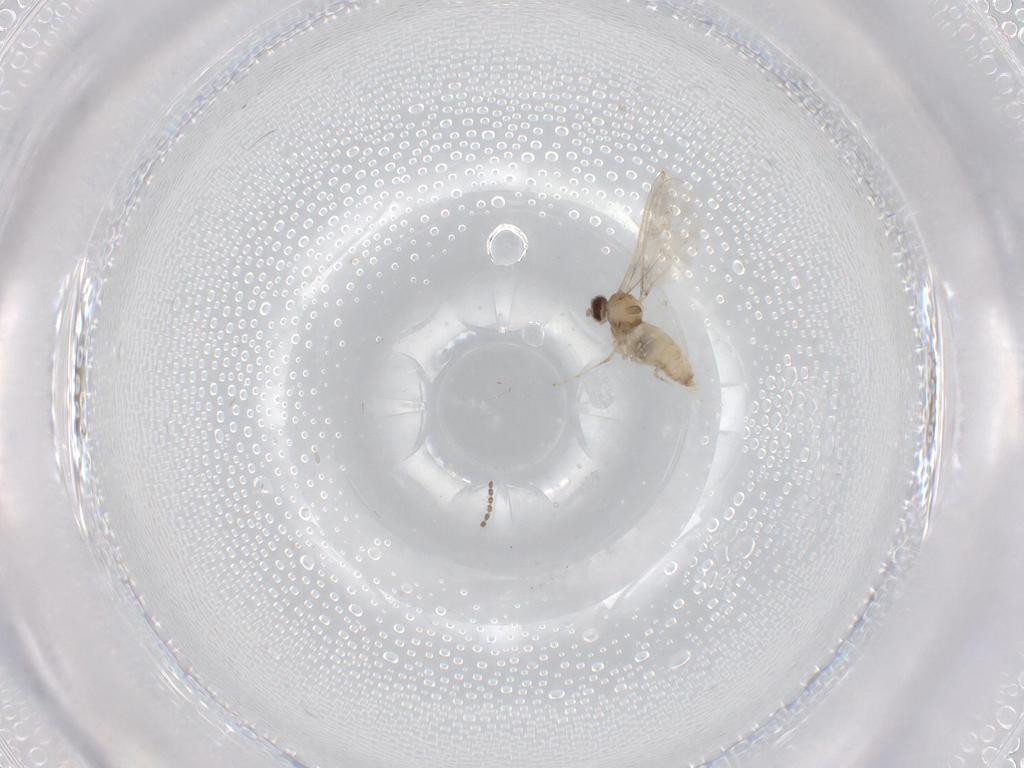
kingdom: Animalia
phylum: Arthropoda
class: Insecta
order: Diptera
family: Cecidomyiidae
